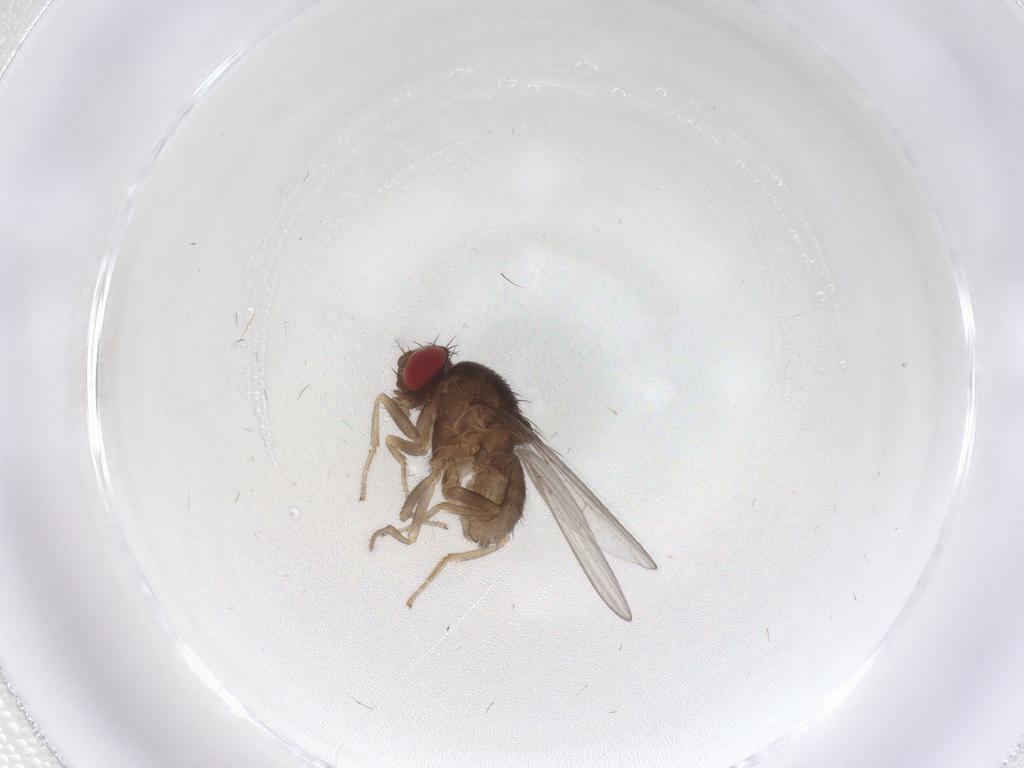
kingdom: Animalia
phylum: Arthropoda
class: Insecta
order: Diptera
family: Drosophilidae
